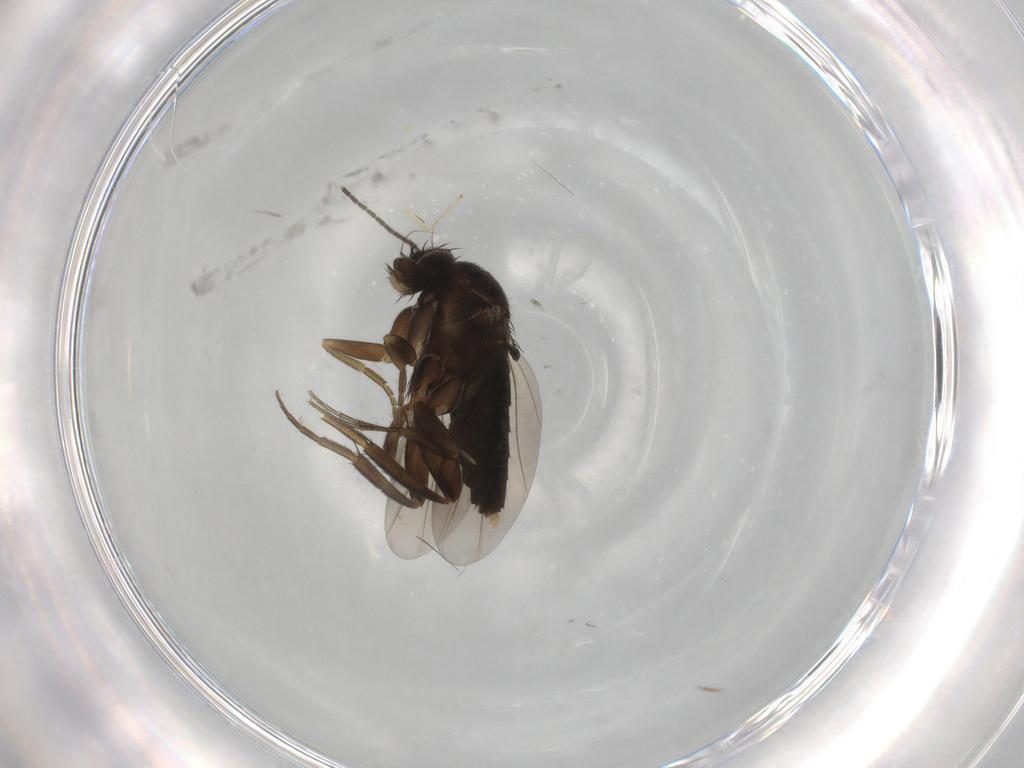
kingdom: Animalia
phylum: Arthropoda
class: Insecta
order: Diptera
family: Phoridae
